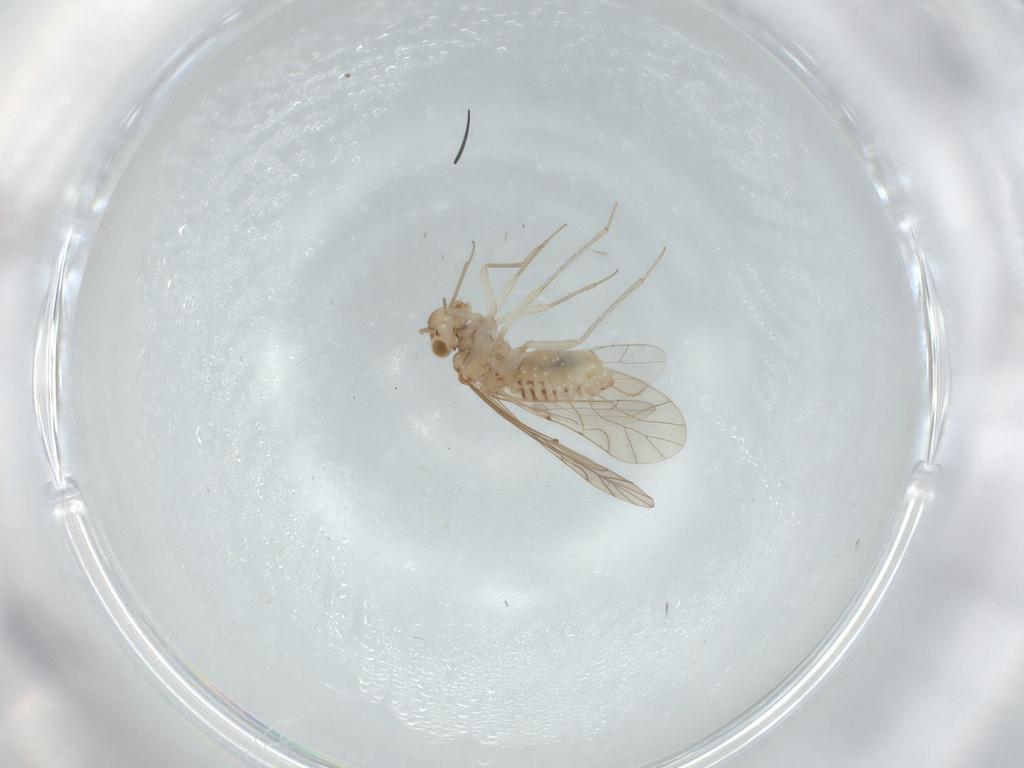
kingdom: Animalia
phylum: Arthropoda
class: Insecta
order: Psocodea
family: Lachesillidae
